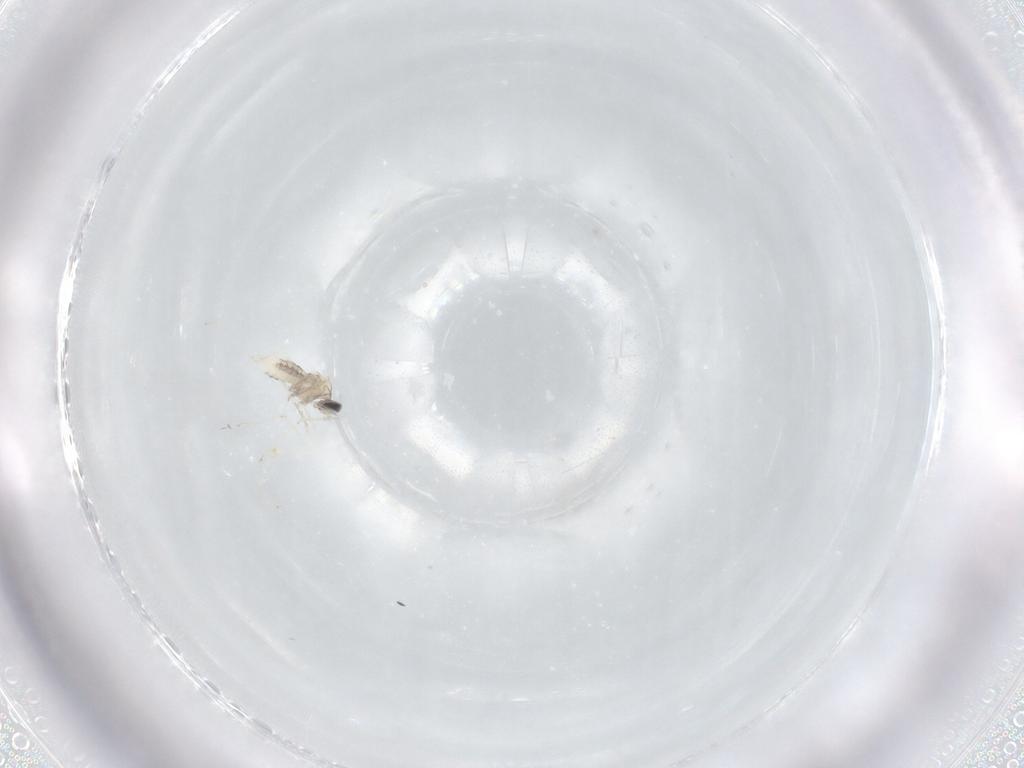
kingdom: Animalia
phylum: Arthropoda
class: Insecta
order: Diptera
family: Cecidomyiidae
